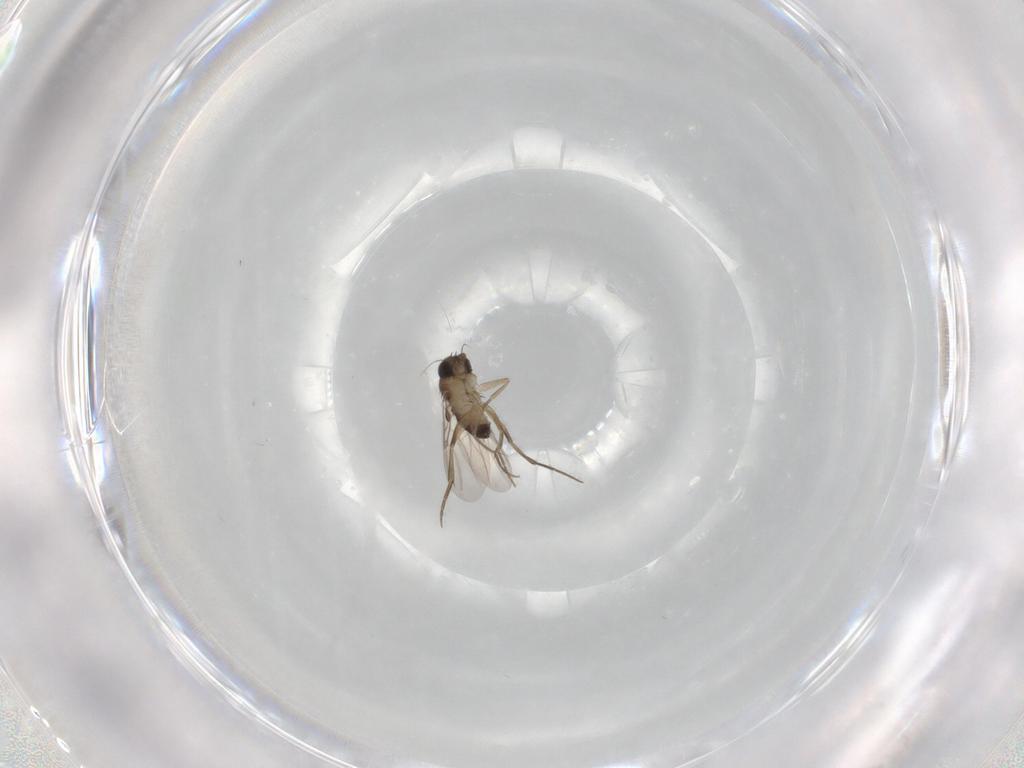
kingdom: Animalia
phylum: Arthropoda
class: Insecta
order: Diptera
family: Phoridae
